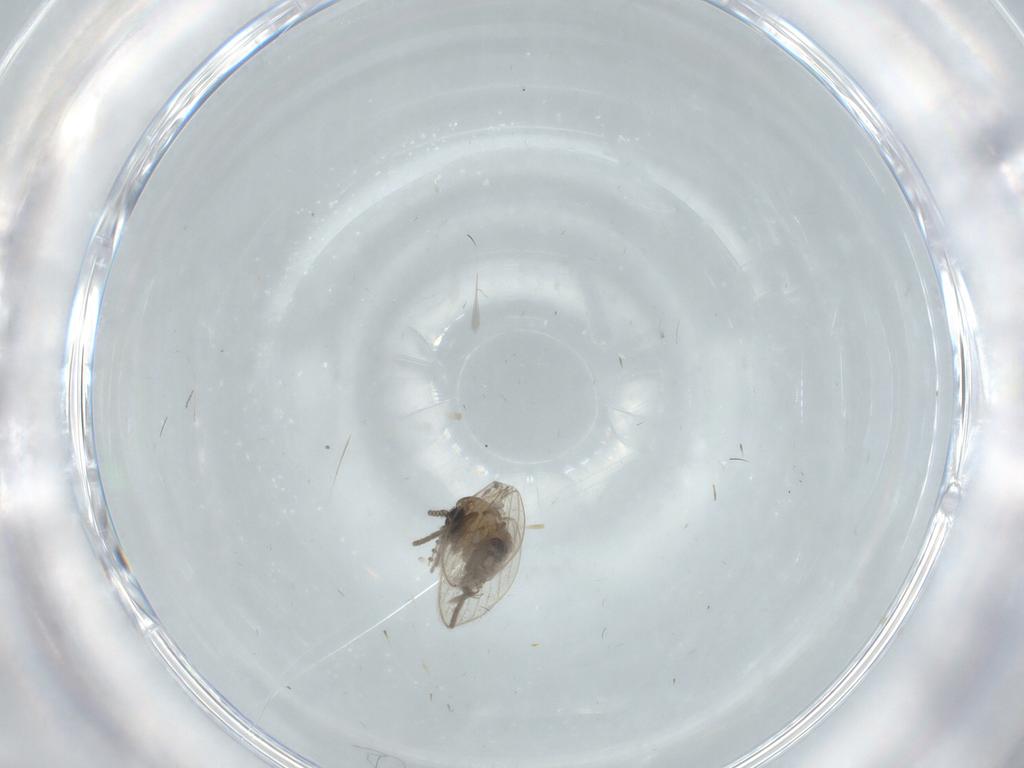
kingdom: Animalia
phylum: Arthropoda
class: Insecta
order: Diptera
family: Psychodidae
